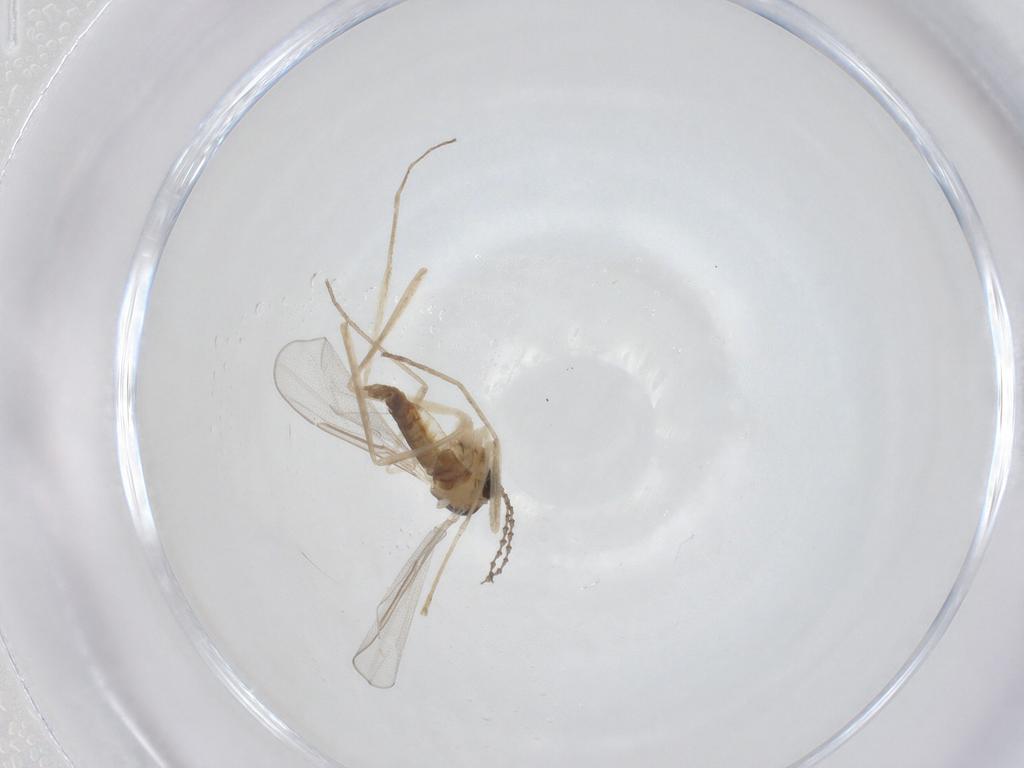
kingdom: Animalia
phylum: Arthropoda
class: Insecta
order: Diptera
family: Cecidomyiidae
